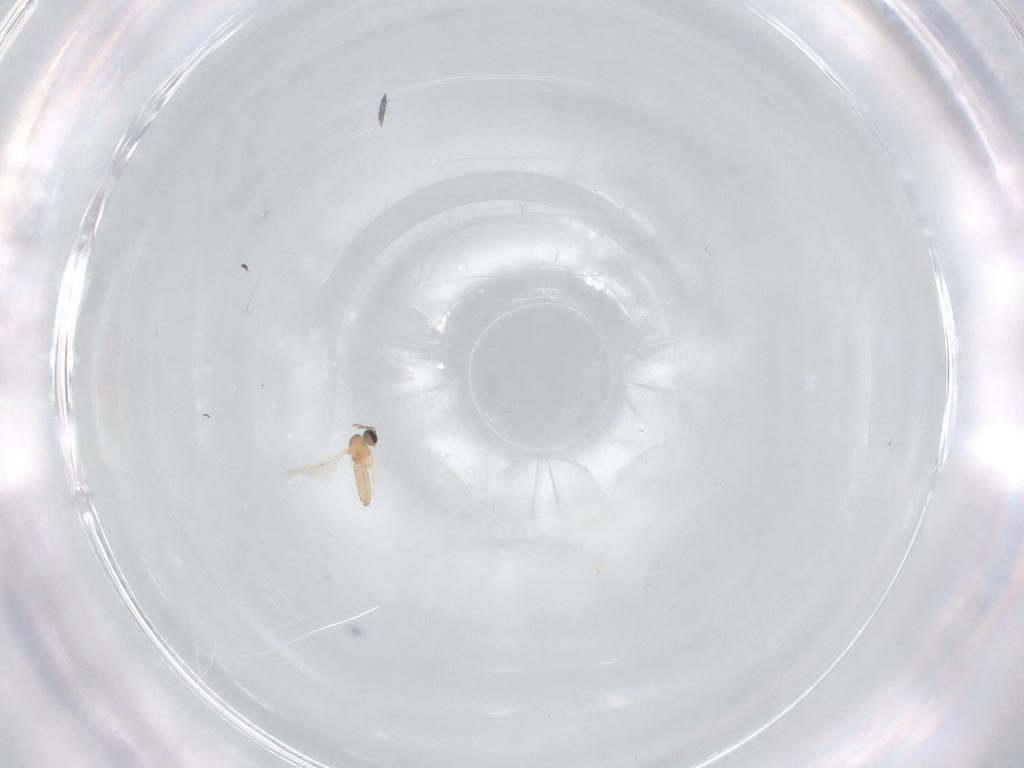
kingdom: Animalia
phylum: Arthropoda
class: Insecta
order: Diptera
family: Cecidomyiidae
